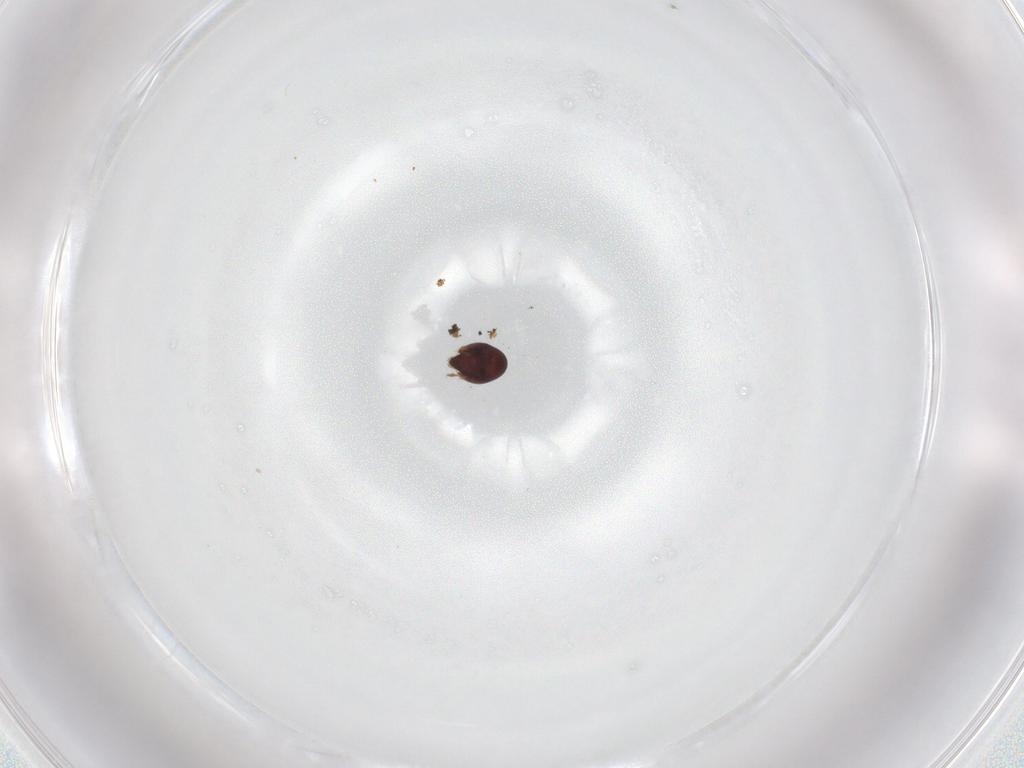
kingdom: Animalia
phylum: Arthropoda
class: Arachnida
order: Sarcoptiformes
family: Achipteriidae
